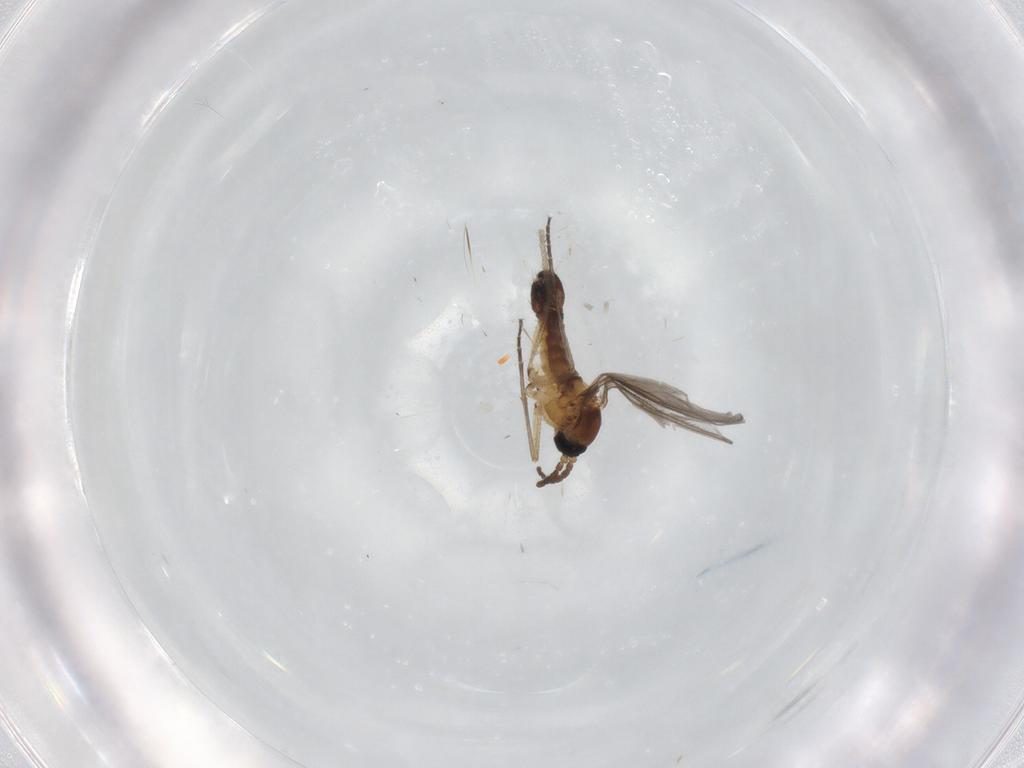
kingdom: Animalia
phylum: Arthropoda
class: Insecta
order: Diptera
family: Sciaridae
